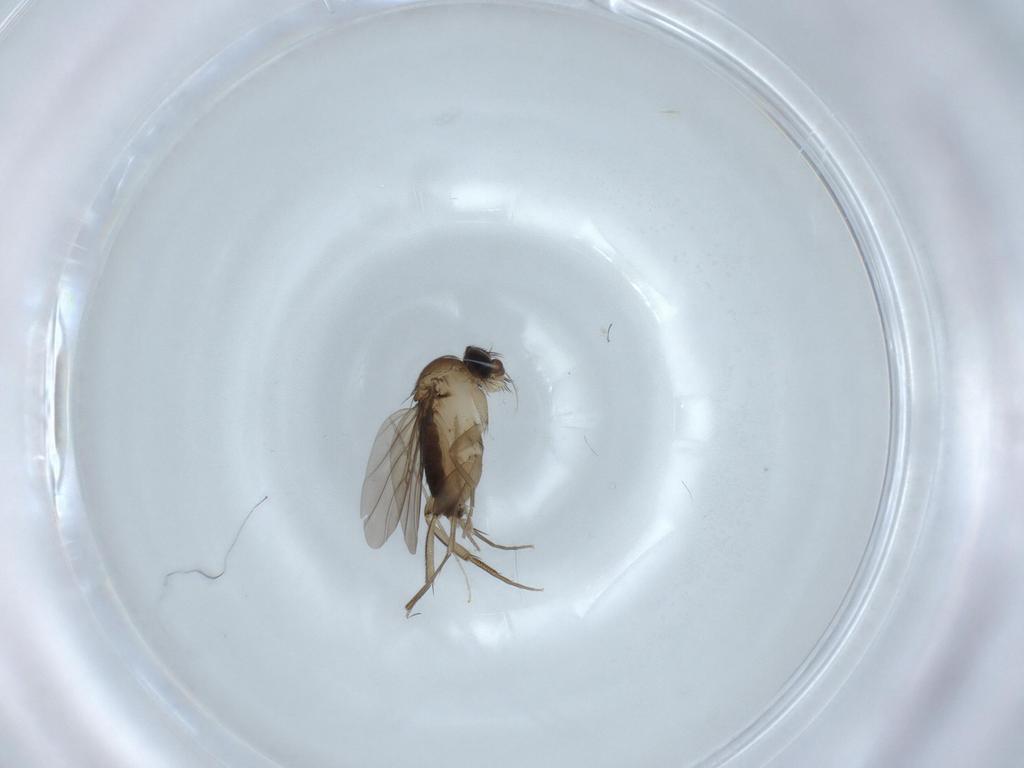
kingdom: Animalia
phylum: Arthropoda
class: Insecta
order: Diptera
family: Phoridae
